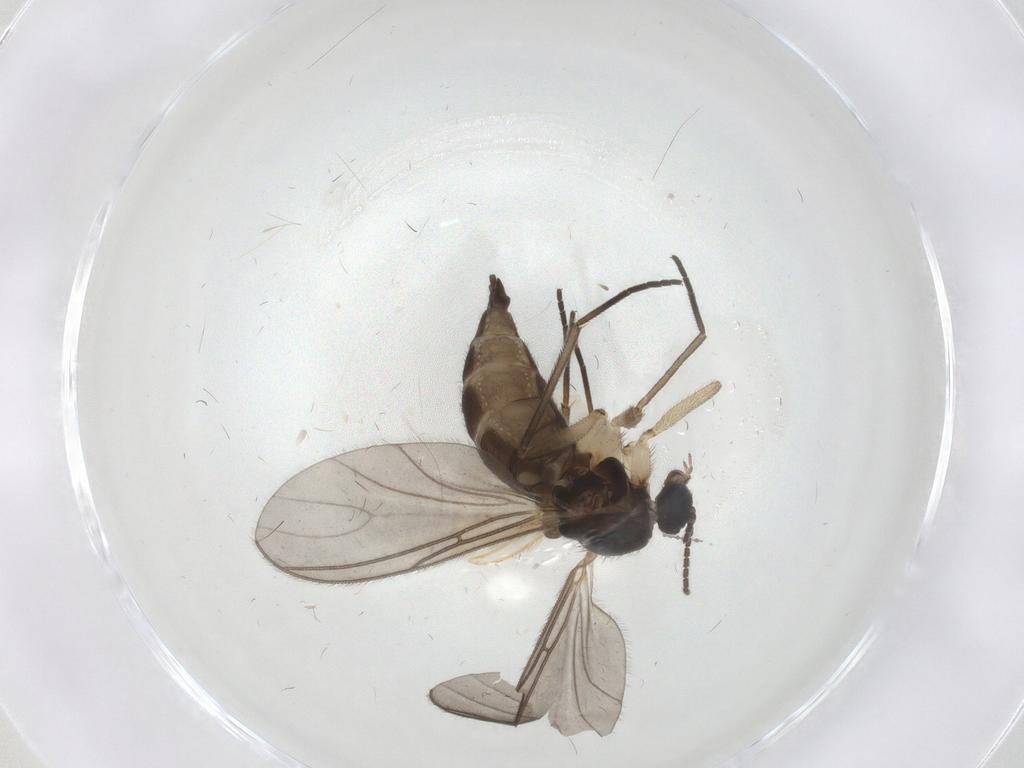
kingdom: Animalia
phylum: Arthropoda
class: Insecta
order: Diptera
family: Chironomidae
